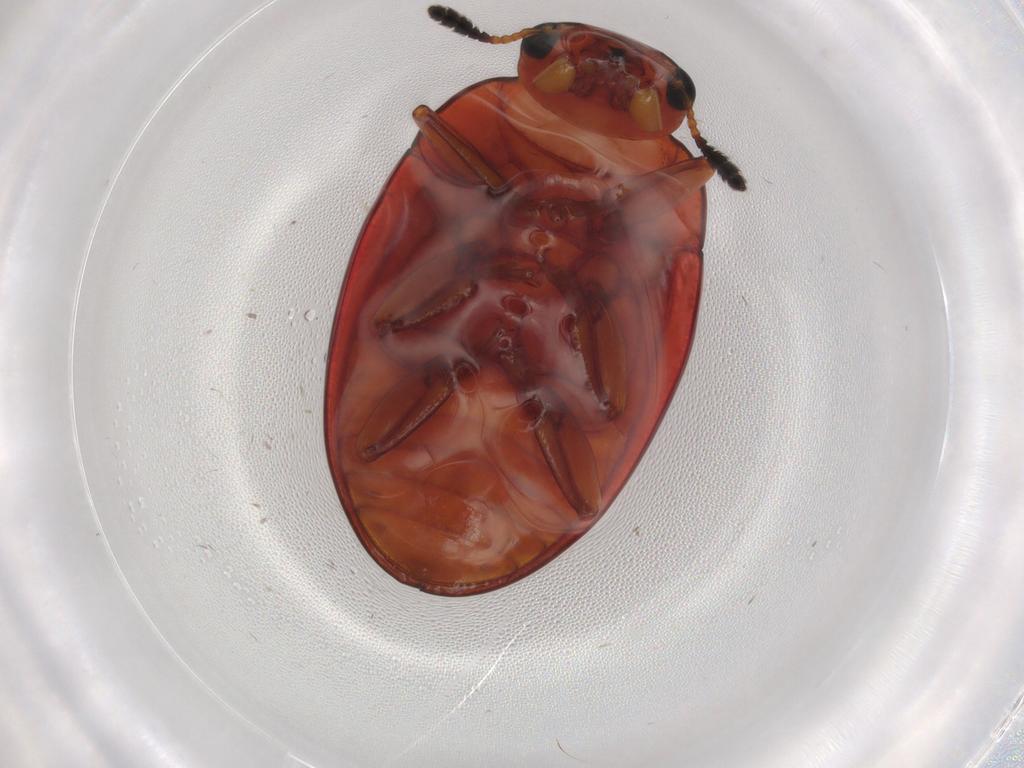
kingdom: Animalia
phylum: Arthropoda
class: Insecta
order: Coleoptera
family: Erotylidae
